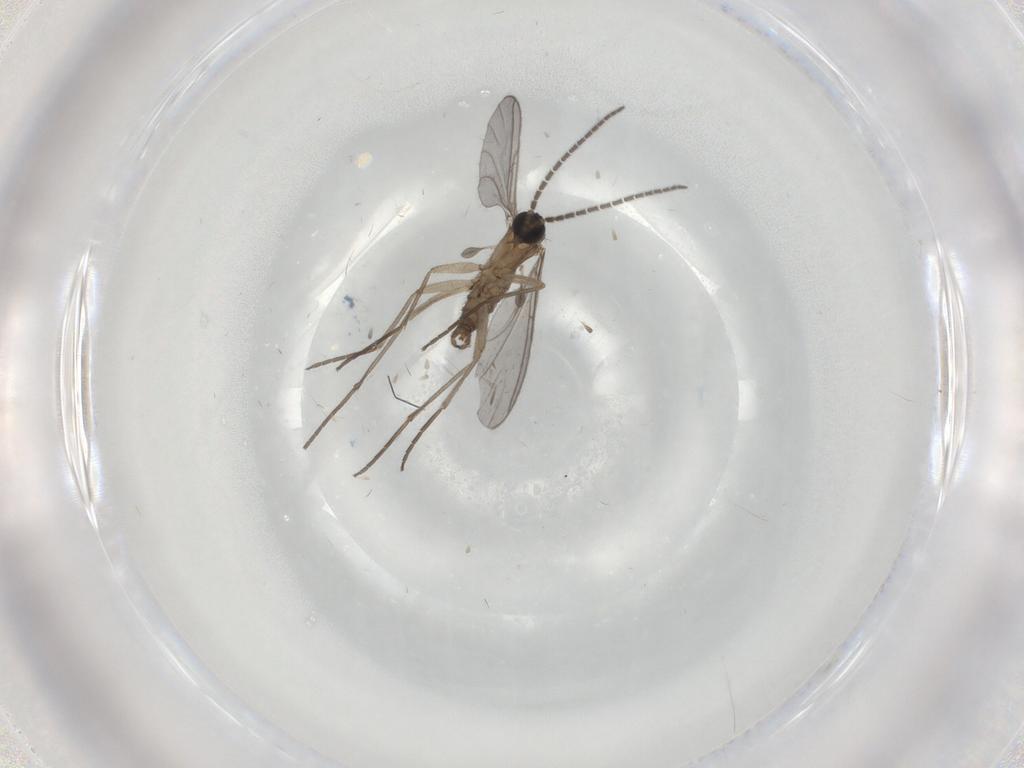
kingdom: Animalia
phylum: Arthropoda
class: Insecta
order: Diptera
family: Sciaridae
